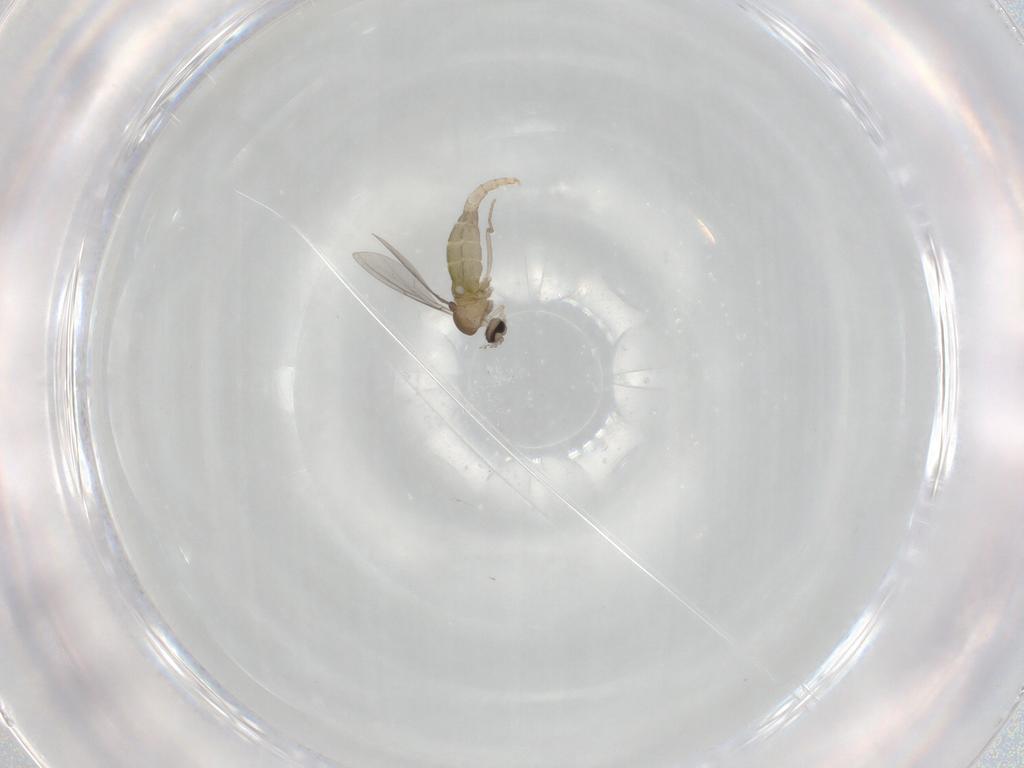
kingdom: Animalia
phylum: Arthropoda
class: Insecta
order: Diptera
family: Cecidomyiidae
